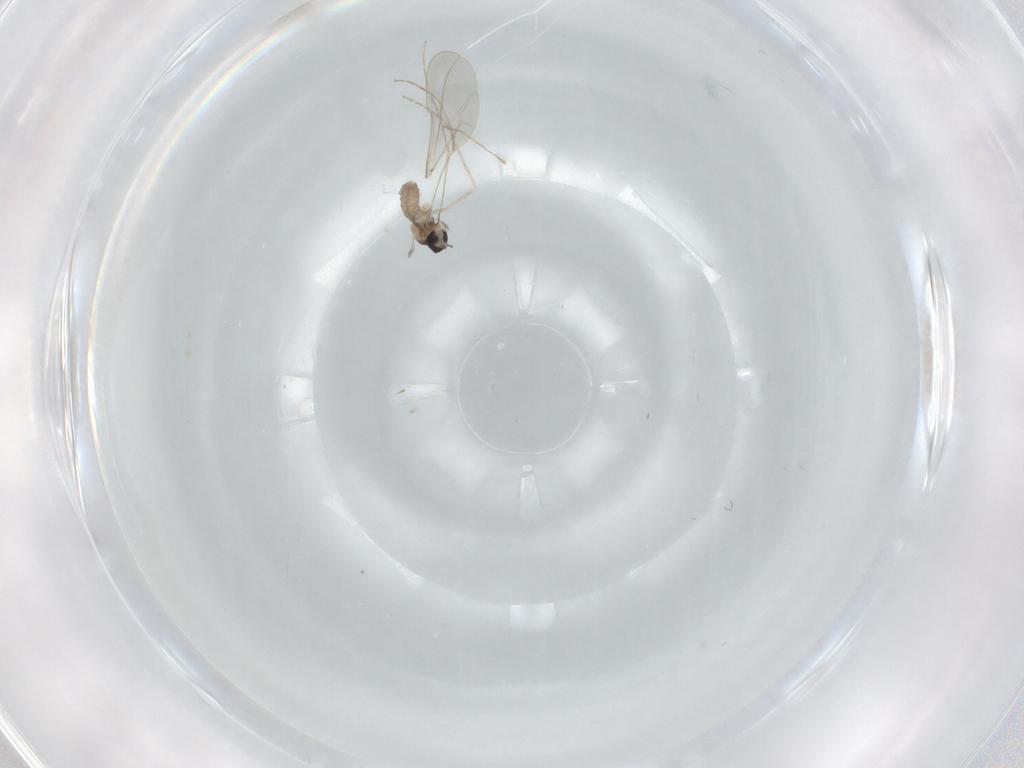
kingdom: Animalia
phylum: Arthropoda
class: Insecta
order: Diptera
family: Cecidomyiidae
